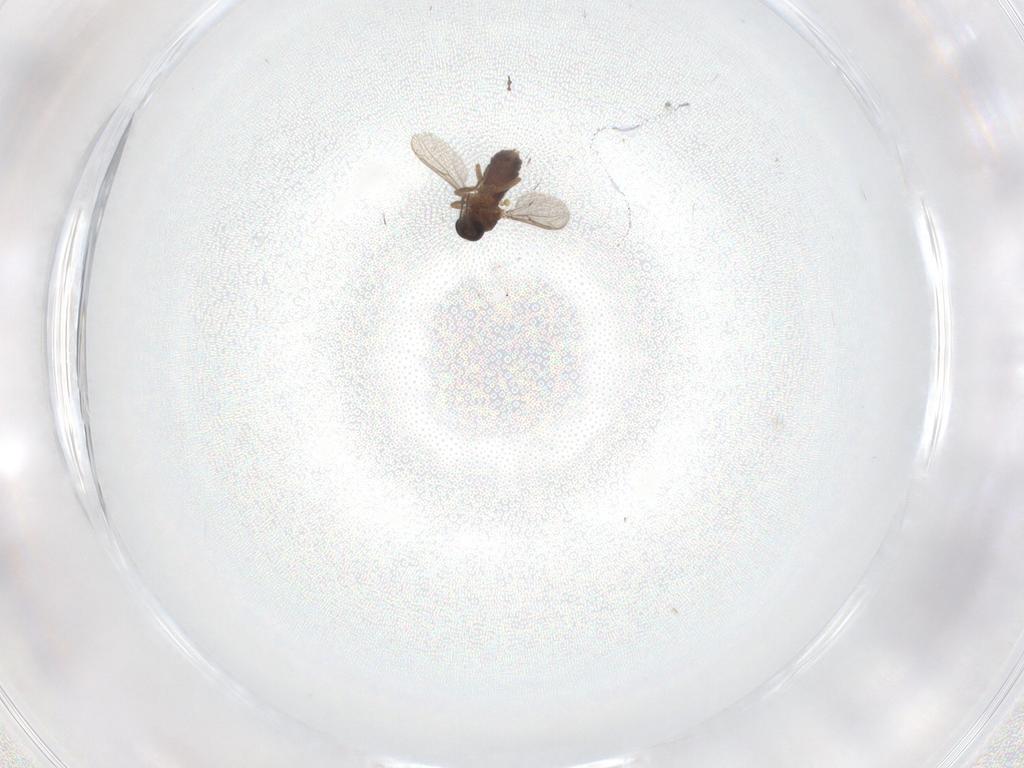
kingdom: Animalia
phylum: Arthropoda
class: Insecta
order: Diptera
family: Ceratopogonidae
